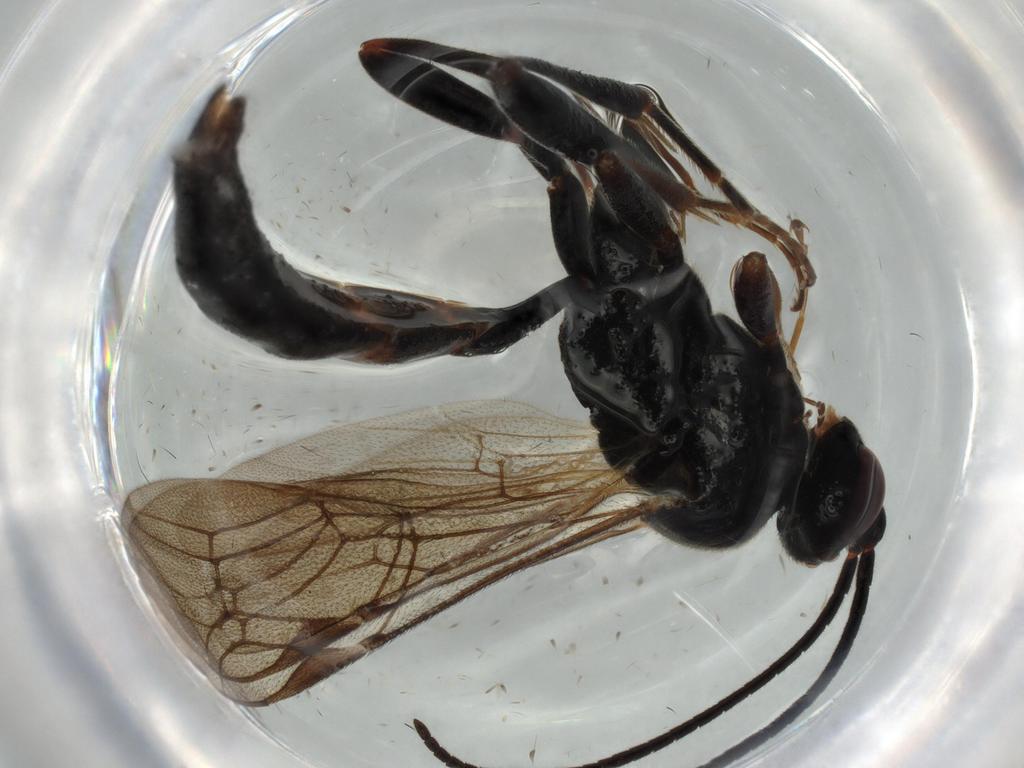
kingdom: Animalia
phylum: Arthropoda
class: Insecta
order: Hymenoptera
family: Ichneumonidae
